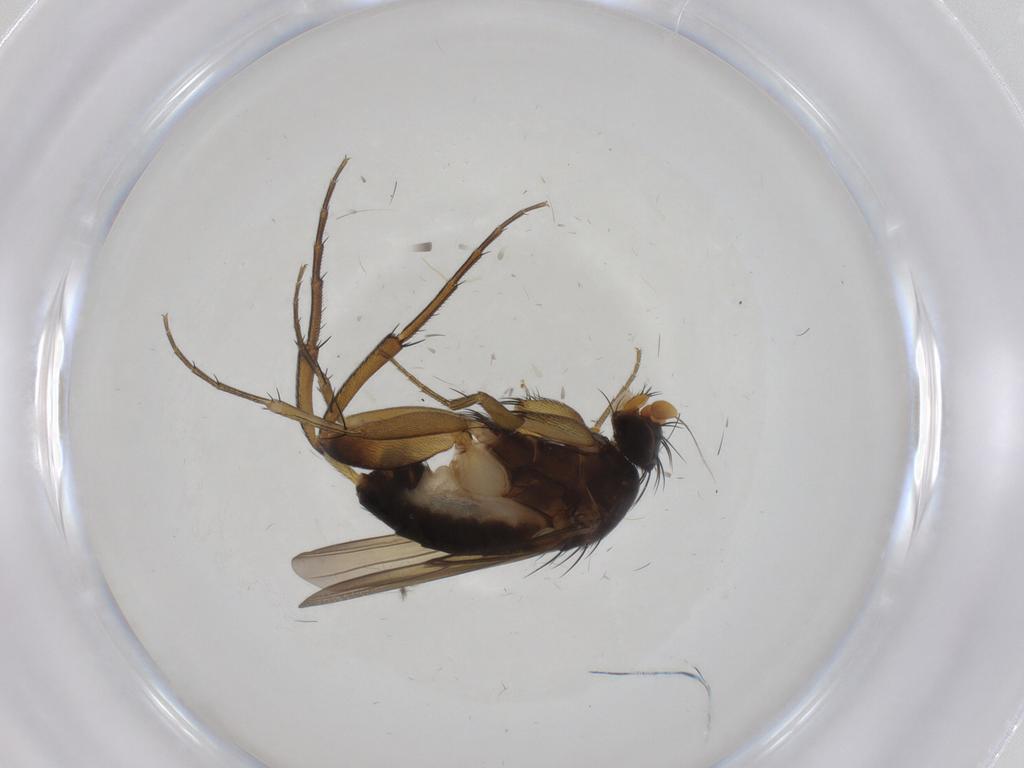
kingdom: Animalia
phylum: Arthropoda
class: Insecta
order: Diptera
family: Phoridae
